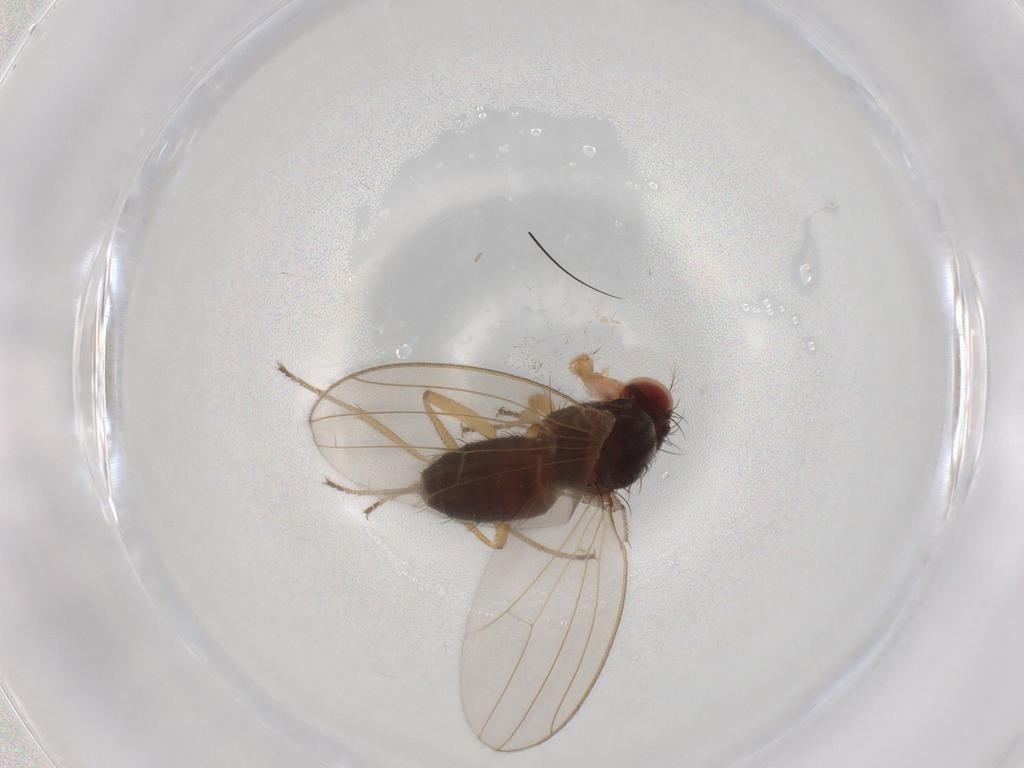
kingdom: Animalia
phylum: Arthropoda
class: Insecta
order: Diptera
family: Drosophilidae
